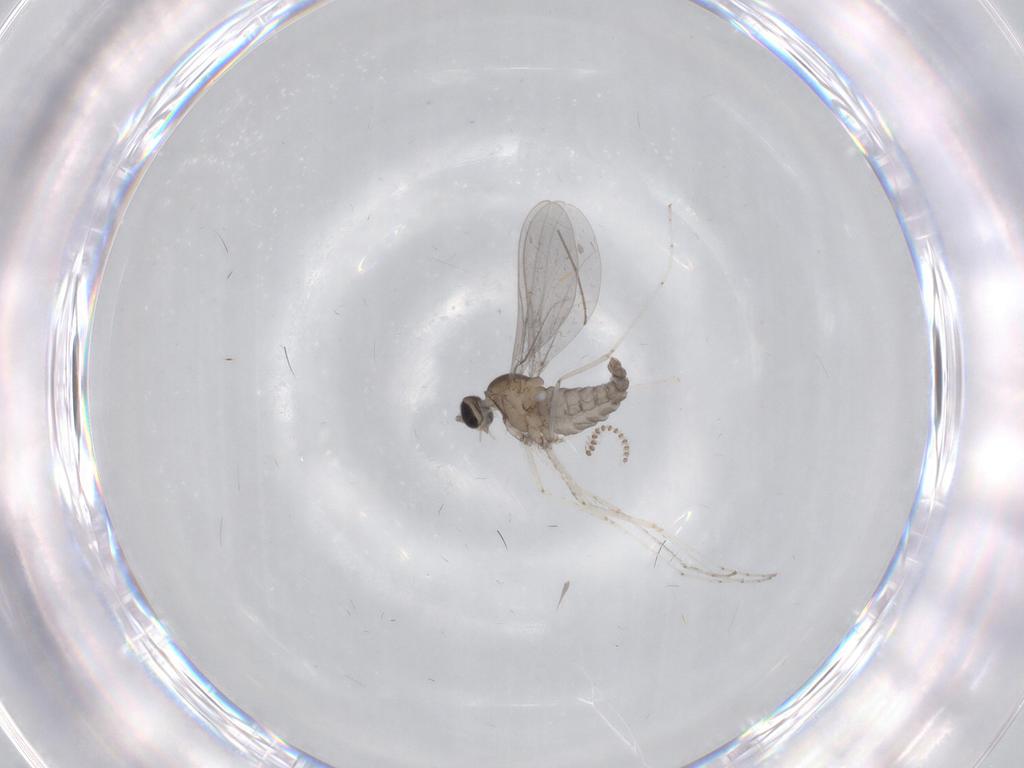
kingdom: Animalia
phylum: Arthropoda
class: Insecta
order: Diptera
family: Cecidomyiidae
